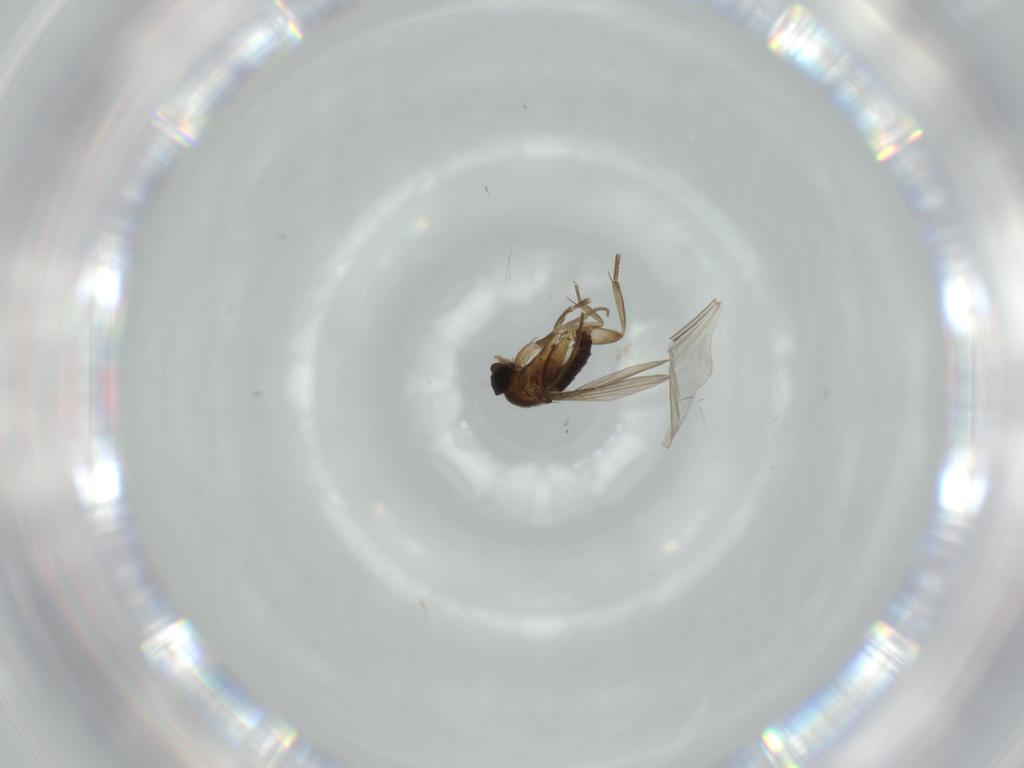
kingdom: Animalia
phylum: Arthropoda
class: Insecta
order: Diptera
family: Phoridae
